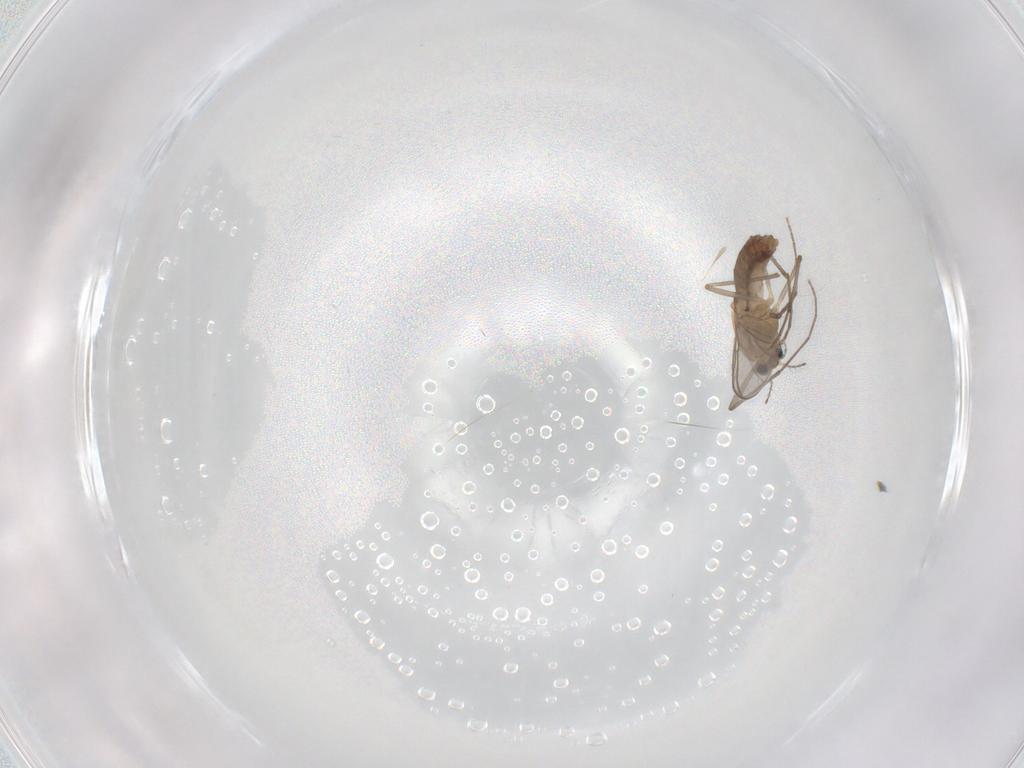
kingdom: Animalia
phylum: Arthropoda
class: Insecta
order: Diptera
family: Chironomidae
